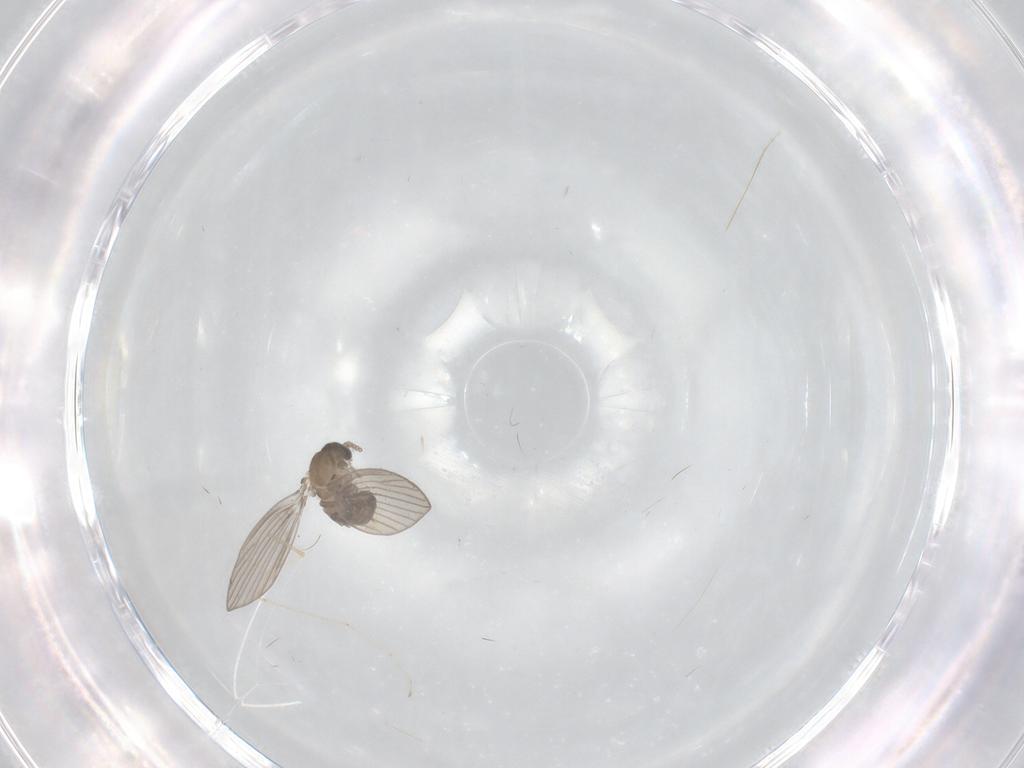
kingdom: Animalia
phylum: Arthropoda
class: Insecta
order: Diptera
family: Psychodidae
